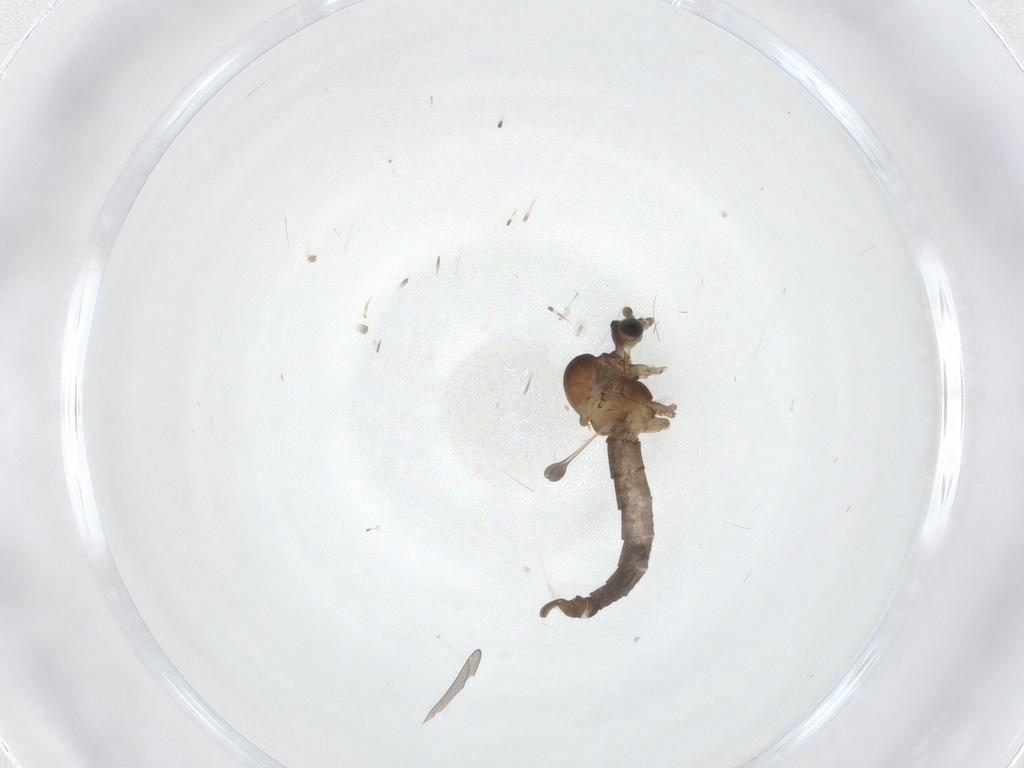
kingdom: Animalia
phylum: Arthropoda
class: Insecta
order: Diptera
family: Trichoceridae
